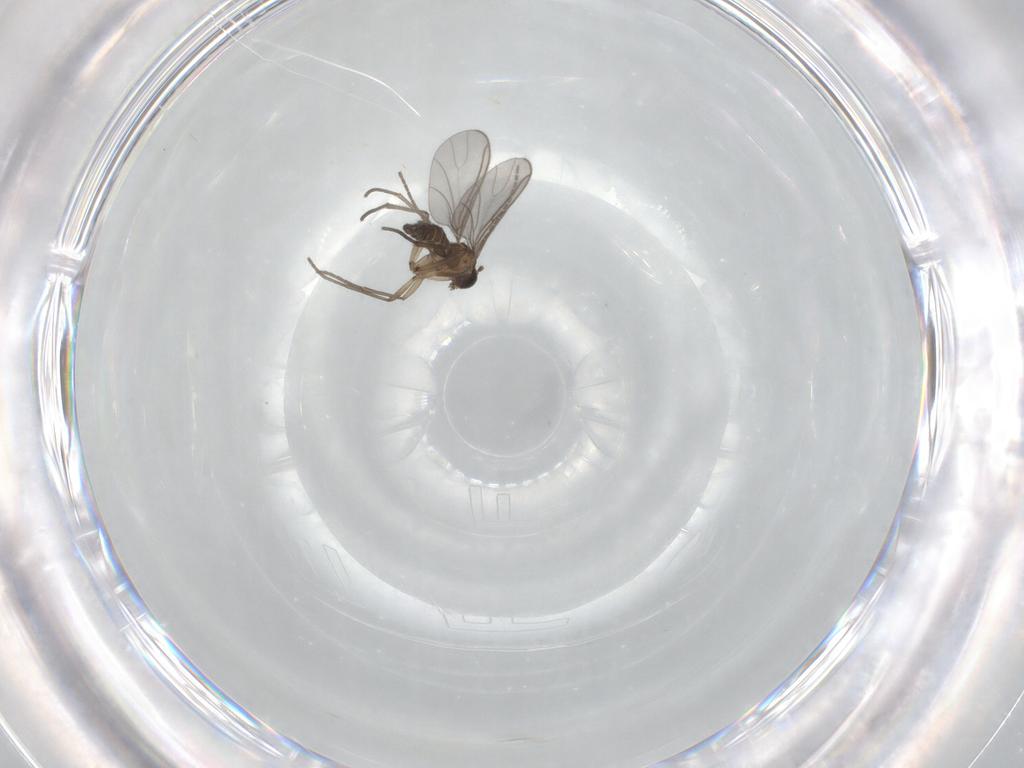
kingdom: Animalia
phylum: Arthropoda
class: Insecta
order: Diptera
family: Sciaridae
